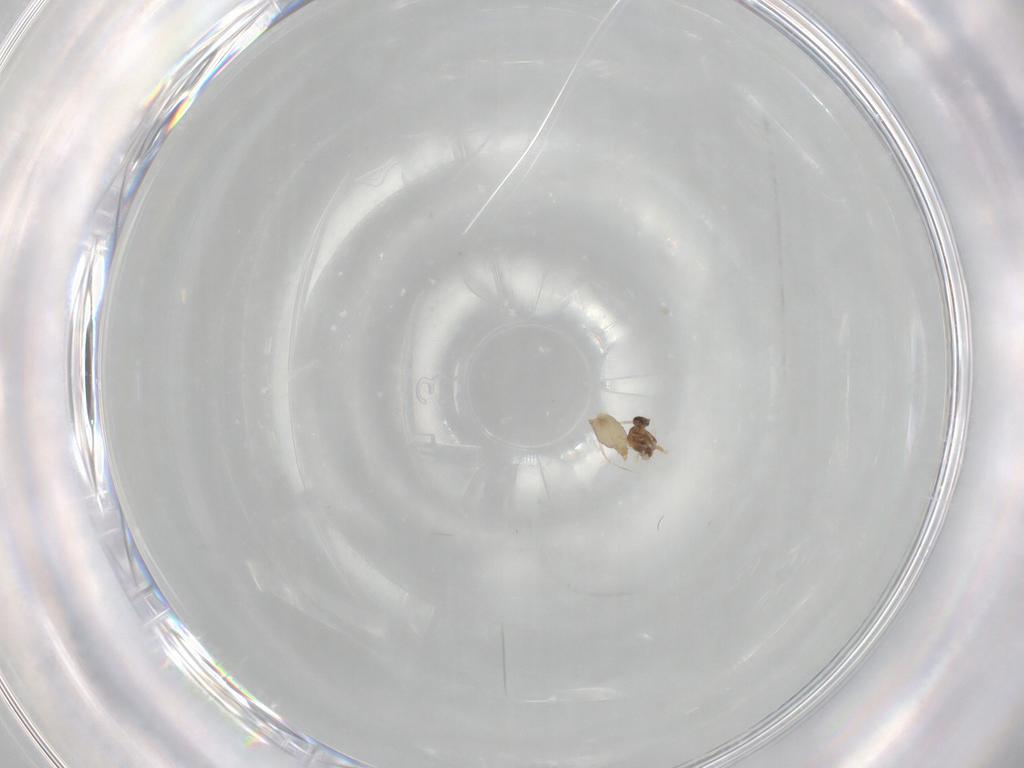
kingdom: Animalia
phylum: Arthropoda
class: Insecta
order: Diptera
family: Cecidomyiidae
